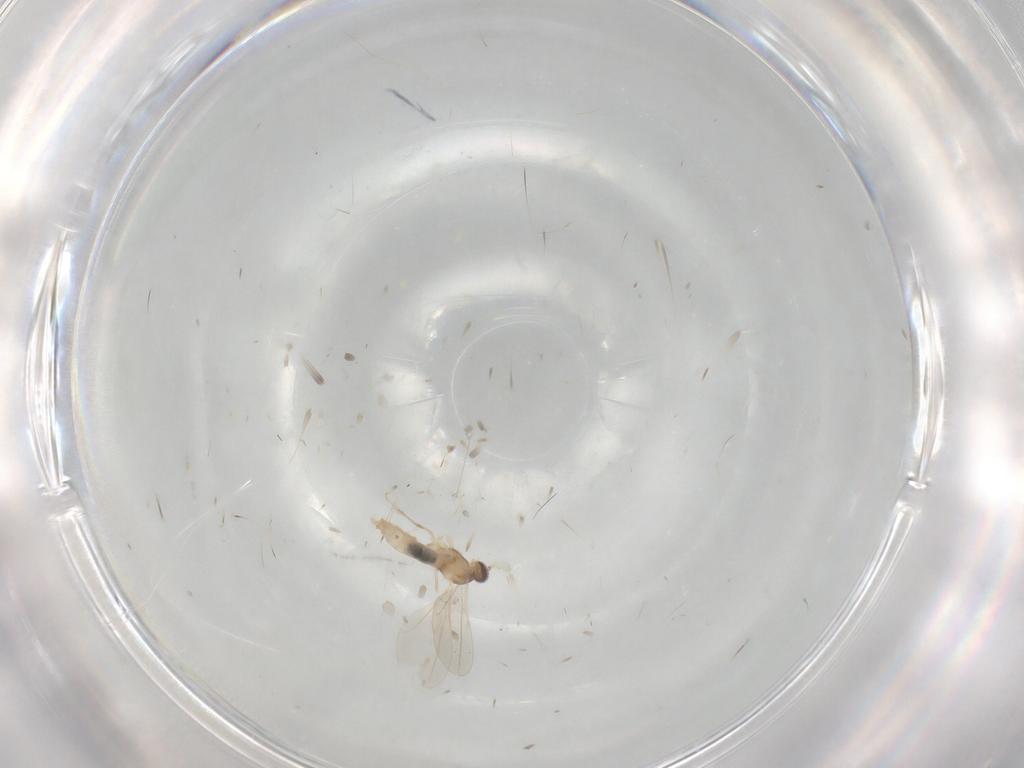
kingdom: Animalia
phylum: Arthropoda
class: Insecta
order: Diptera
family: Cecidomyiidae
